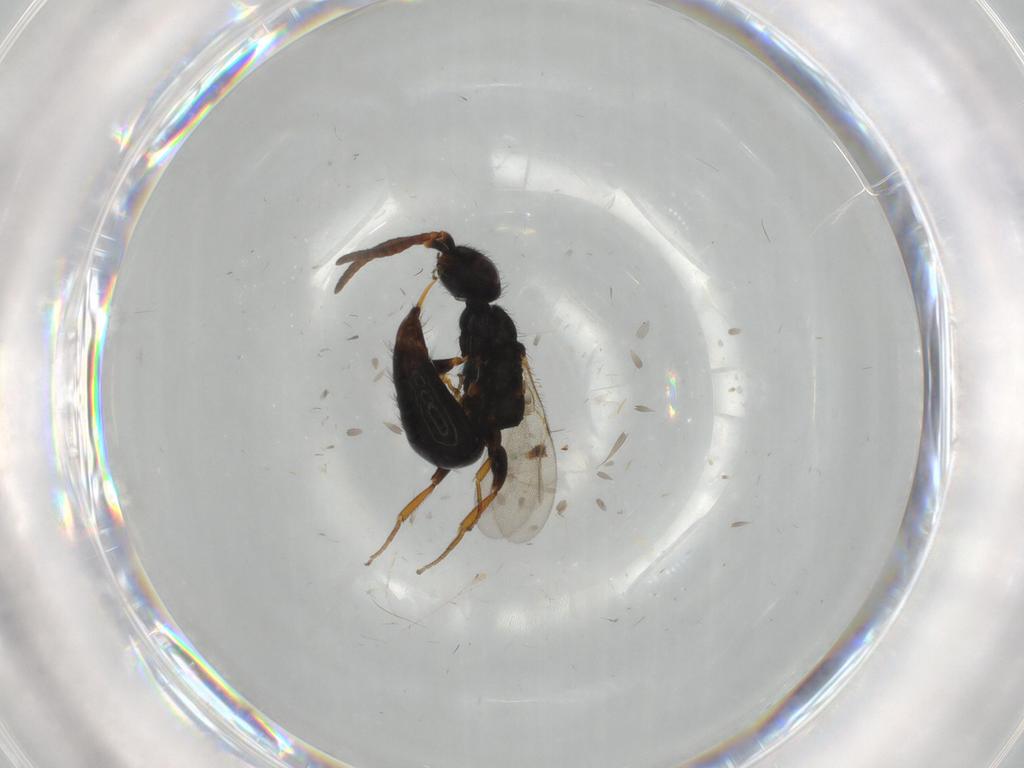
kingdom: Animalia
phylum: Arthropoda
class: Insecta
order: Hymenoptera
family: Bethylidae
